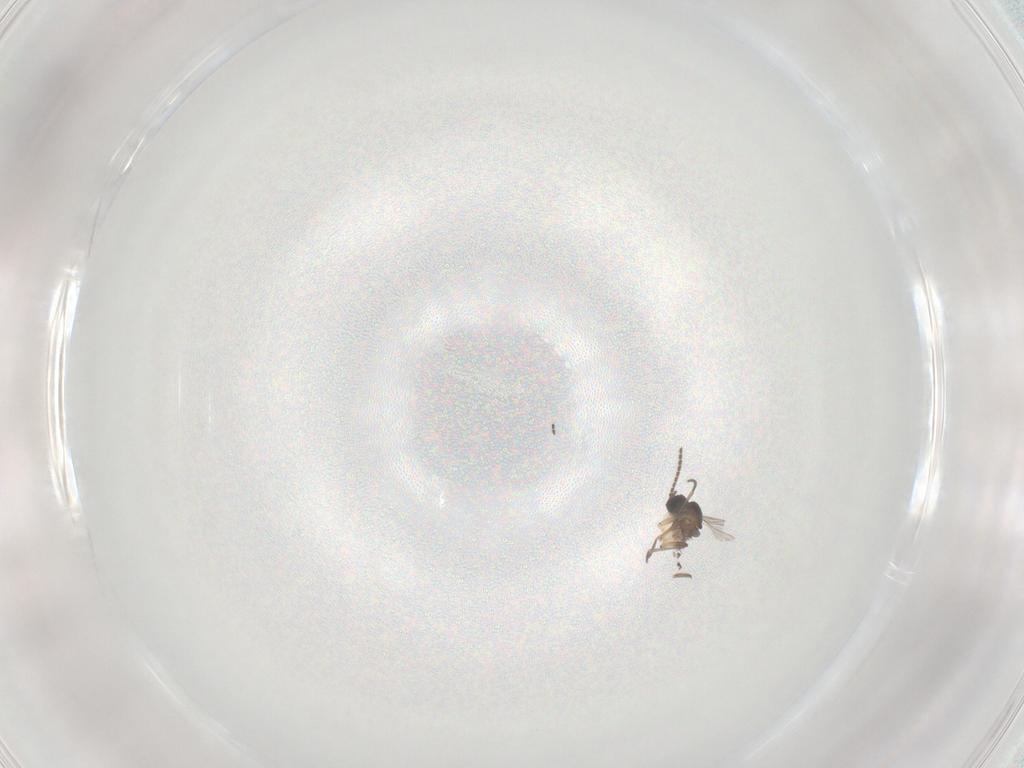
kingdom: Animalia
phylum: Arthropoda
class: Insecta
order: Diptera
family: Sciaridae
